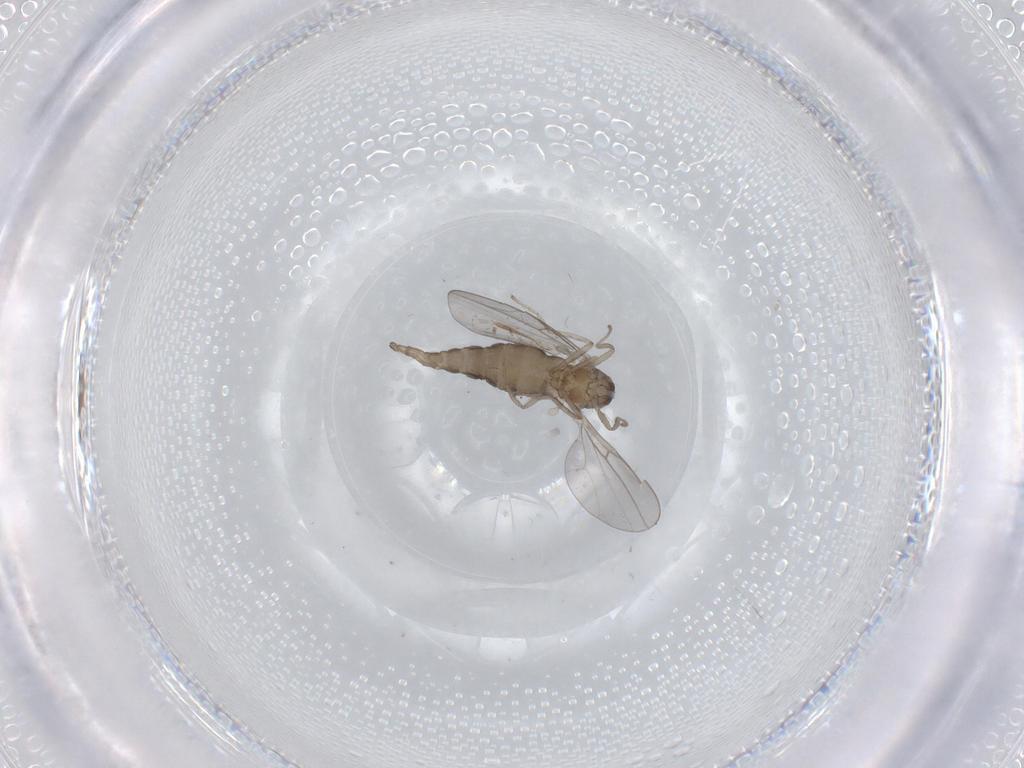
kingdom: Animalia
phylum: Arthropoda
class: Insecta
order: Diptera
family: Cecidomyiidae
